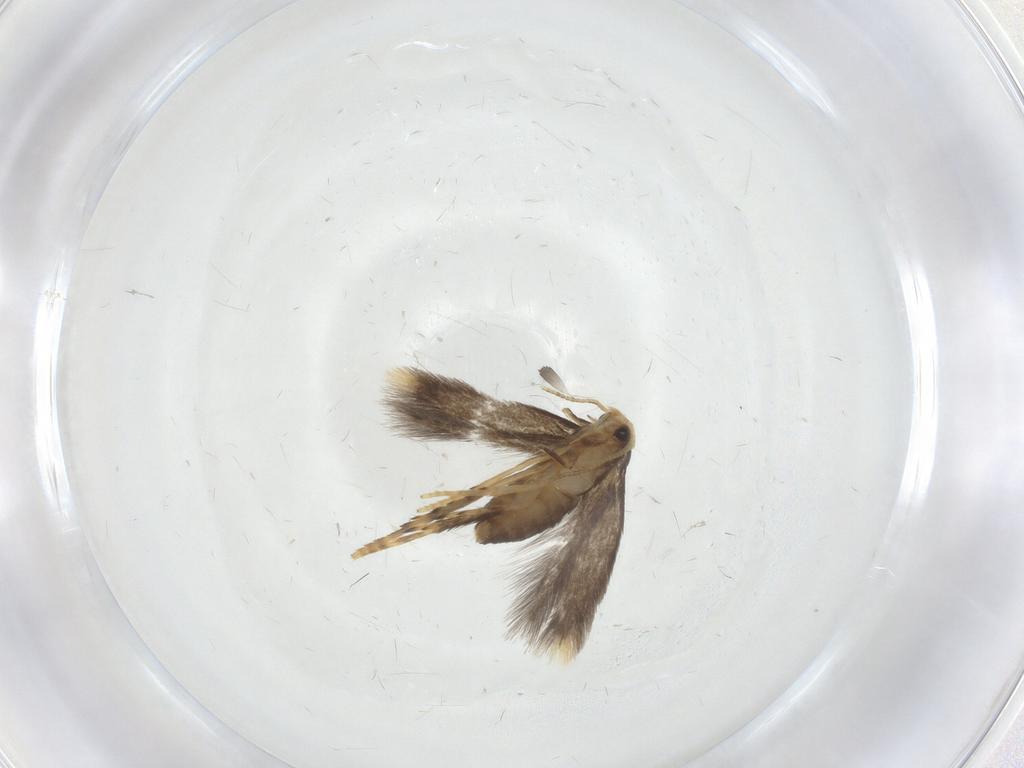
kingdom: Animalia
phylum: Arthropoda
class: Insecta
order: Lepidoptera
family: Nepticulidae
